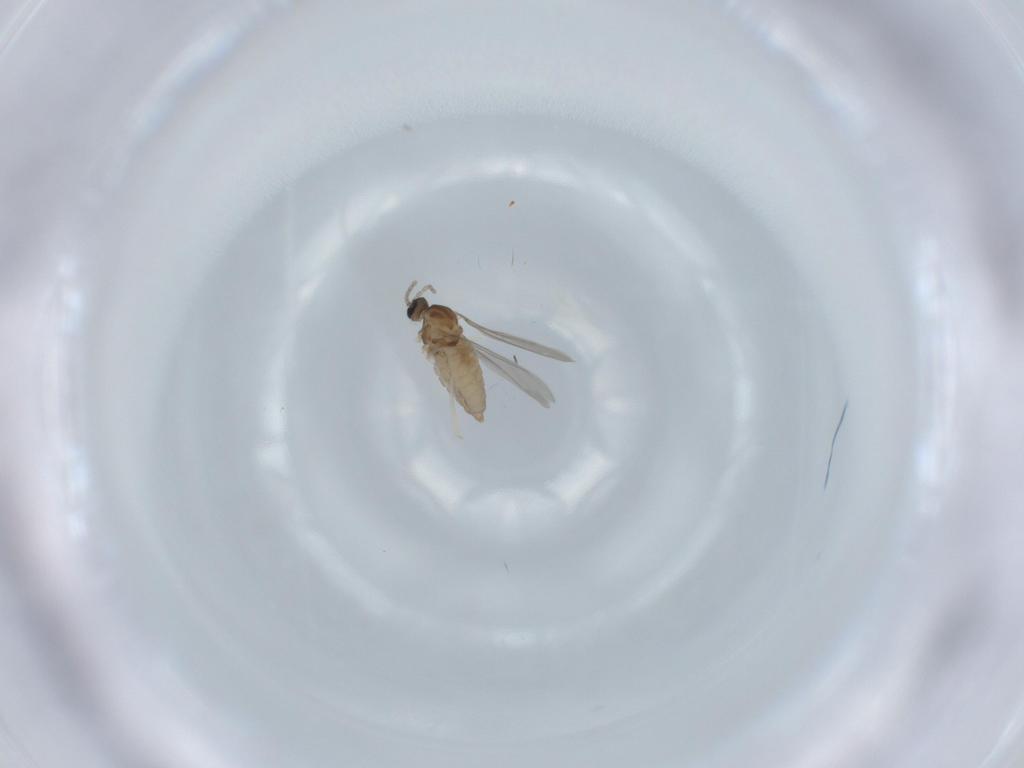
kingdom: Animalia
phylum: Arthropoda
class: Insecta
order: Diptera
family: Cecidomyiidae
